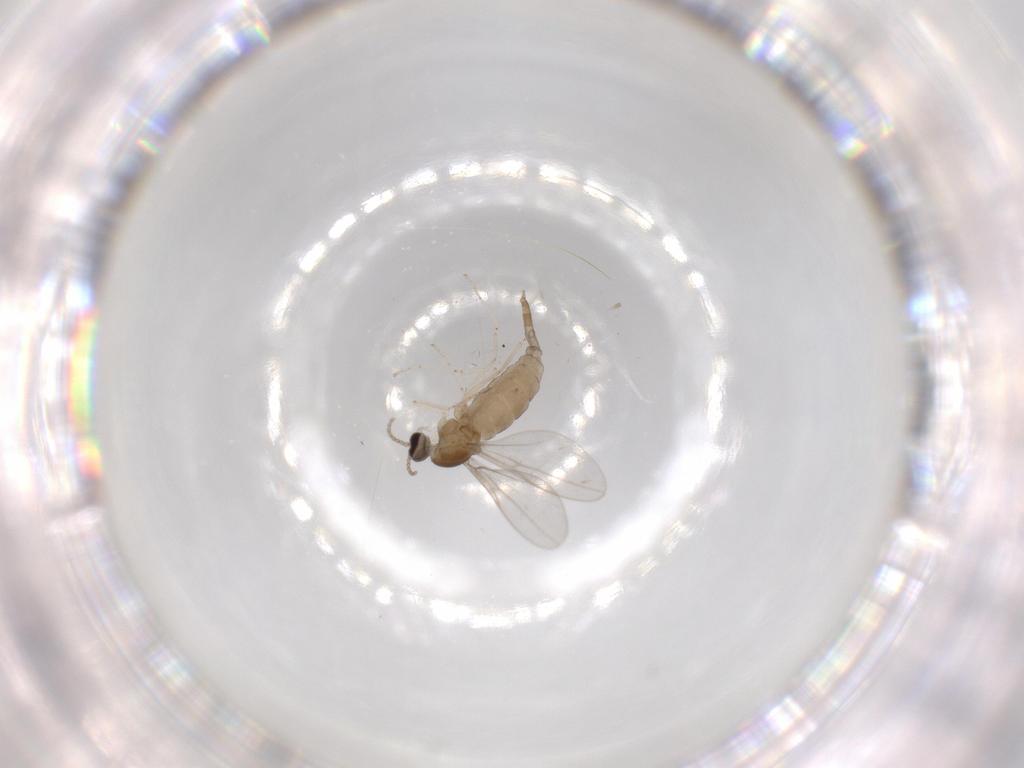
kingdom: Animalia
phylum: Arthropoda
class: Insecta
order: Diptera
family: Cecidomyiidae
